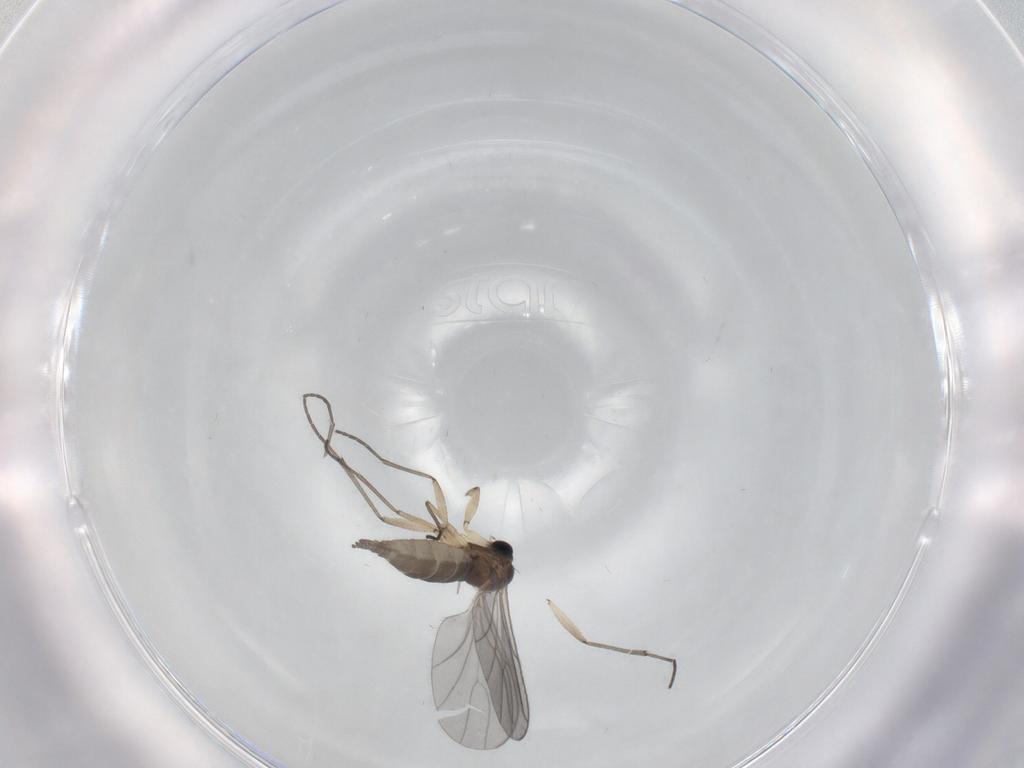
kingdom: Animalia
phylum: Arthropoda
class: Insecta
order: Diptera
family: Sciaridae
